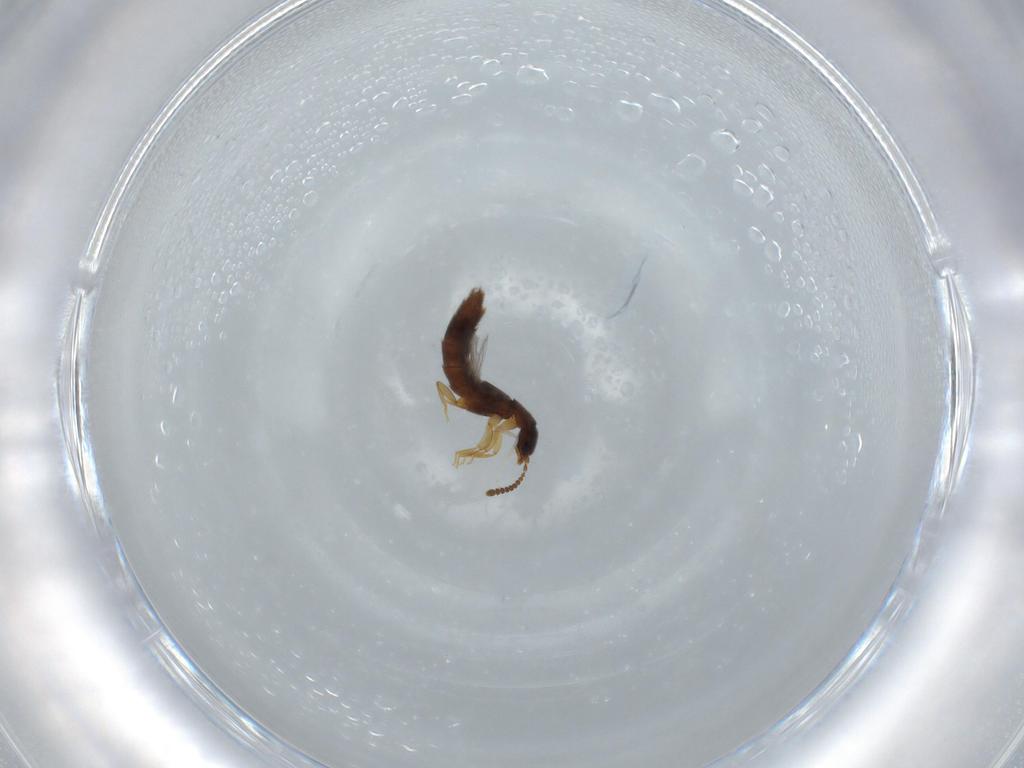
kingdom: Animalia
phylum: Arthropoda
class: Insecta
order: Coleoptera
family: Staphylinidae
